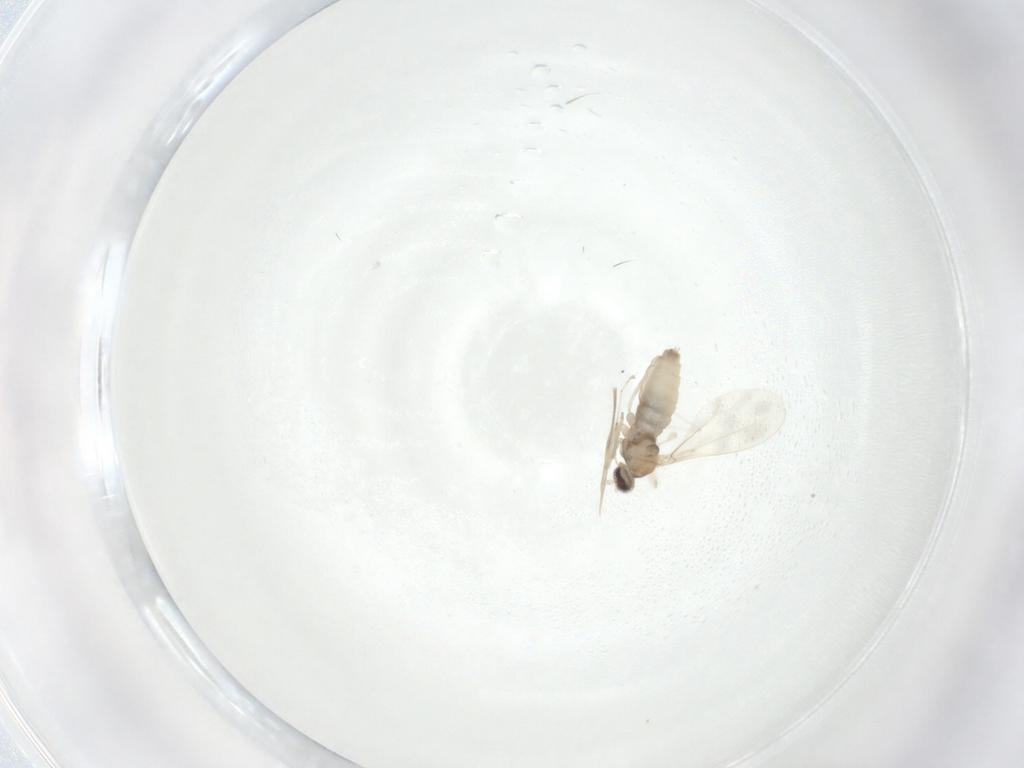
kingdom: Animalia
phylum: Arthropoda
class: Insecta
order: Diptera
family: Cecidomyiidae
